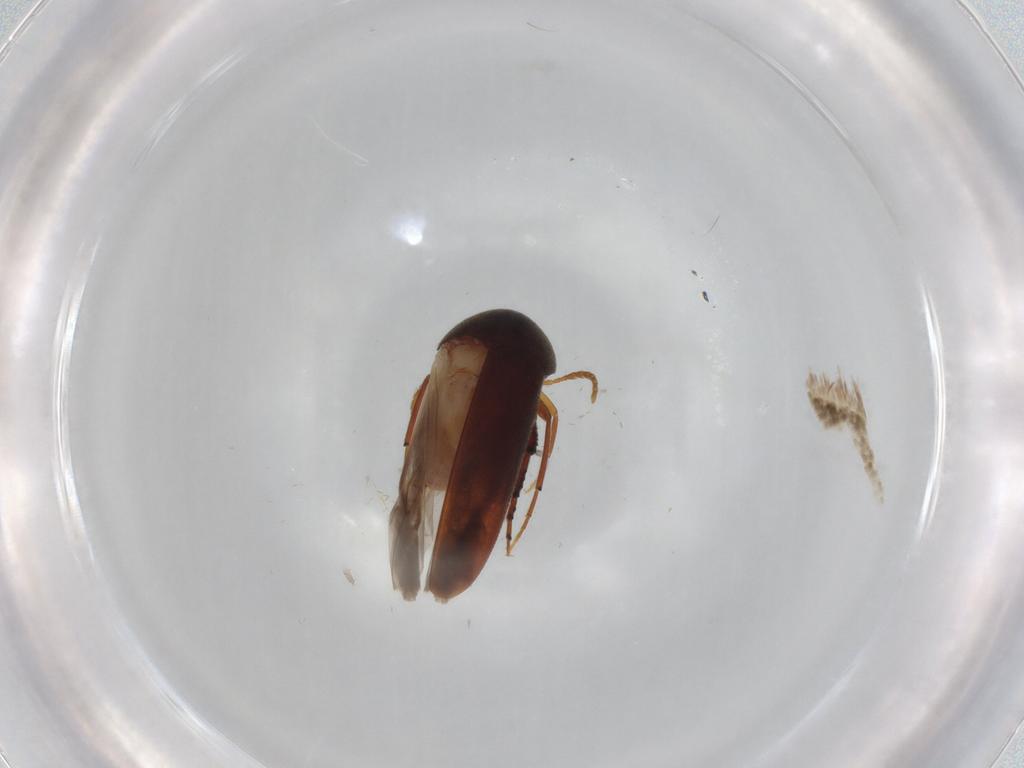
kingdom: Animalia
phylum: Arthropoda
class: Insecta
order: Coleoptera
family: Mordellidae
